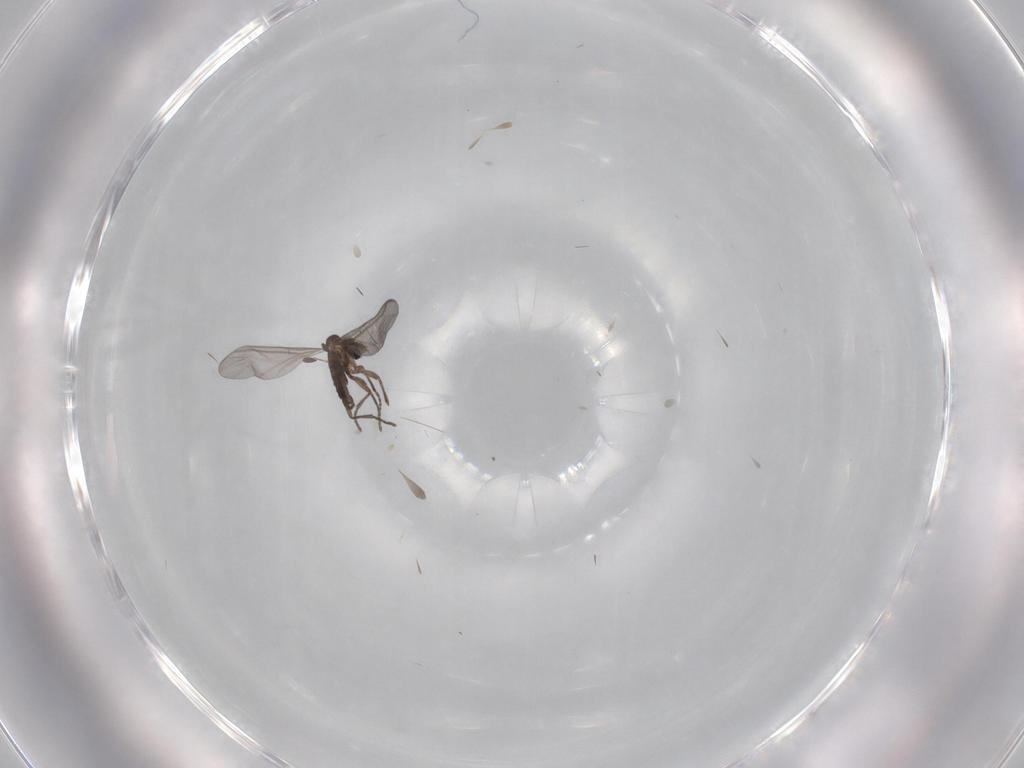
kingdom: Animalia
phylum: Arthropoda
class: Insecta
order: Diptera
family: Sciaridae
